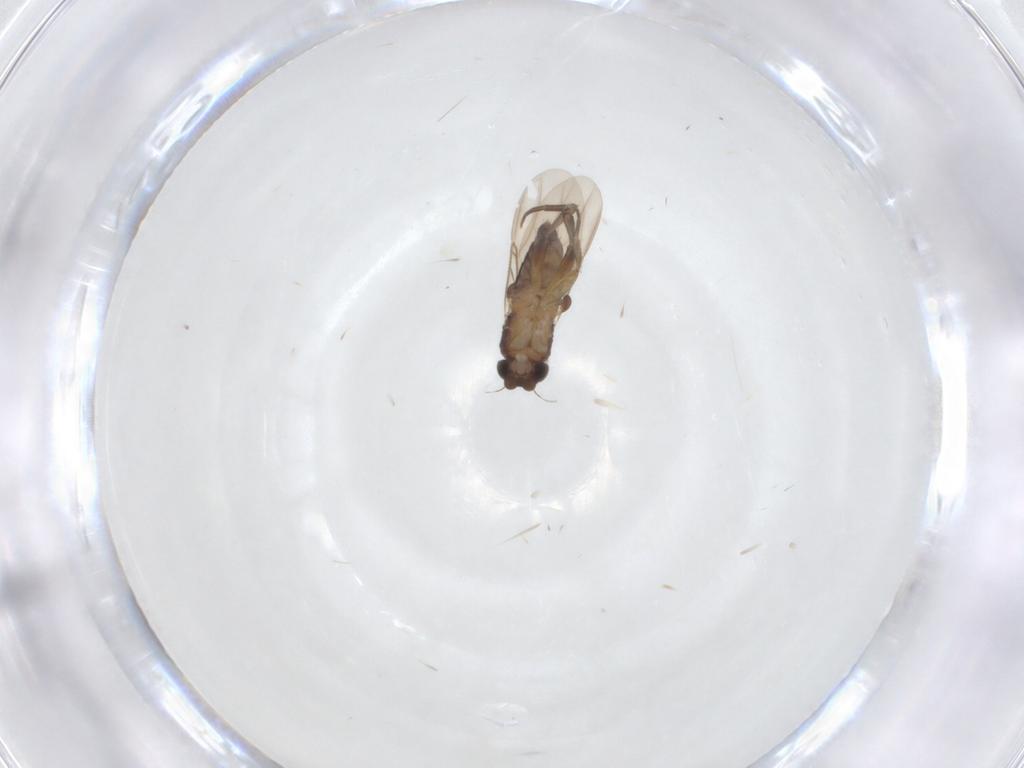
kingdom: Animalia
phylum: Arthropoda
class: Insecta
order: Diptera
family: Phoridae
